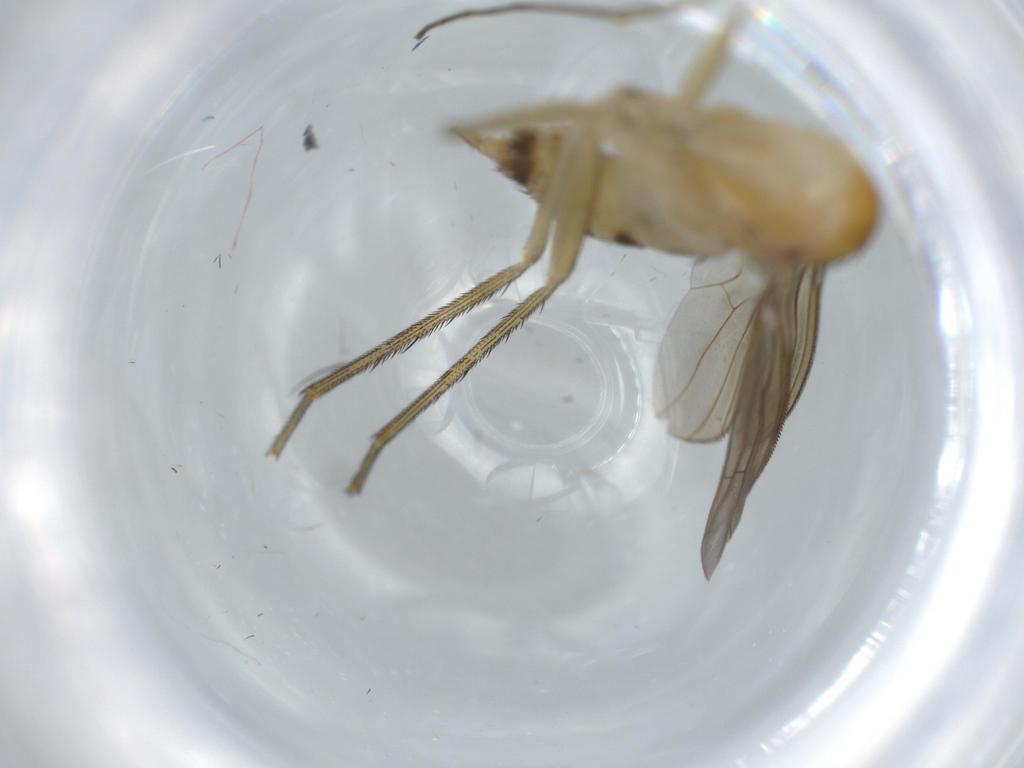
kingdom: Animalia
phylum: Arthropoda
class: Insecta
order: Diptera
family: Dolichopodidae
